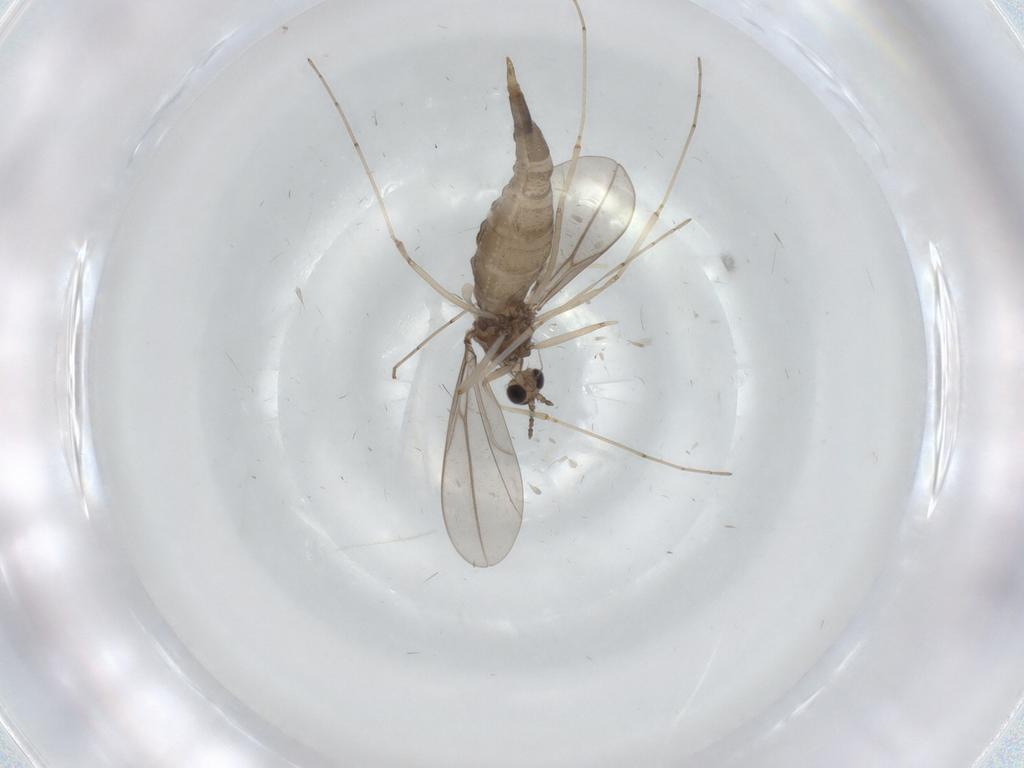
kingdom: Animalia
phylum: Arthropoda
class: Insecta
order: Diptera
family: Cecidomyiidae
